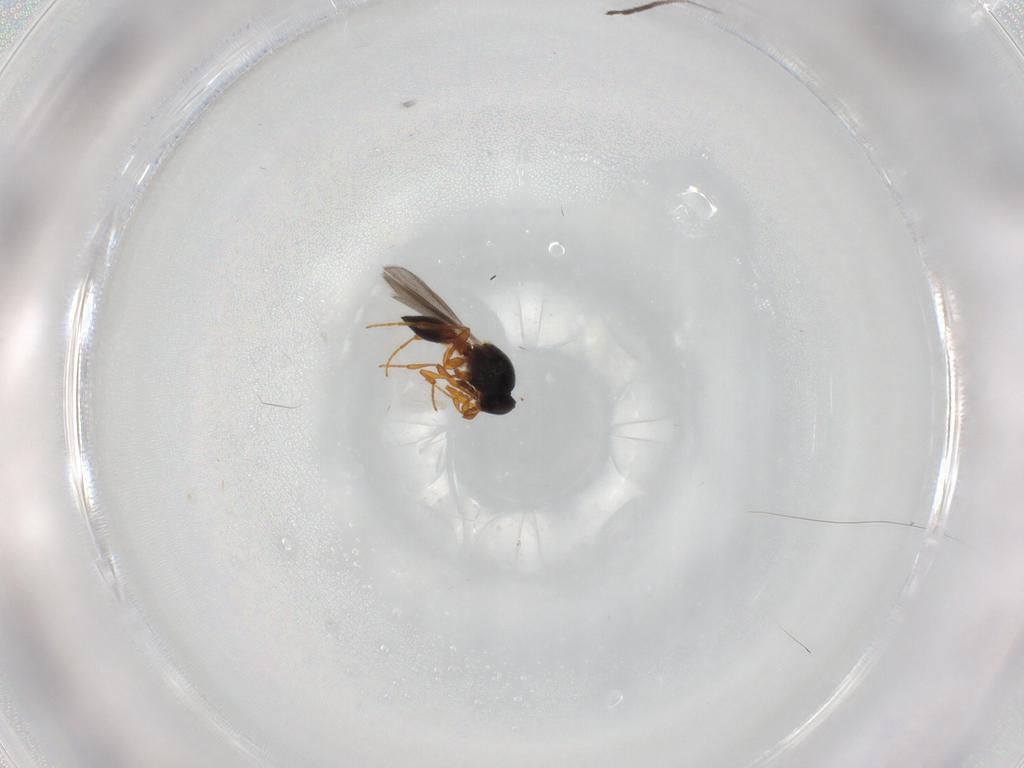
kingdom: Animalia
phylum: Arthropoda
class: Insecta
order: Hymenoptera
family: Platygastridae
